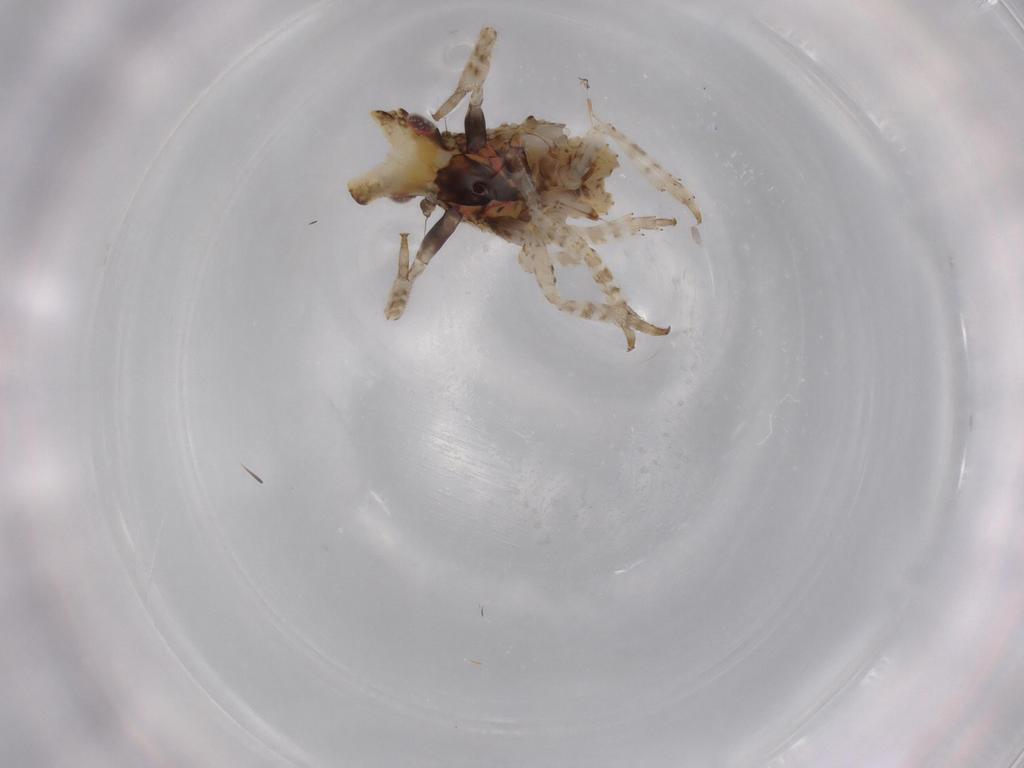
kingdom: Animalia
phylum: Arthropoda
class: Insecta
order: Hemiptera
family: Fulgoridae
